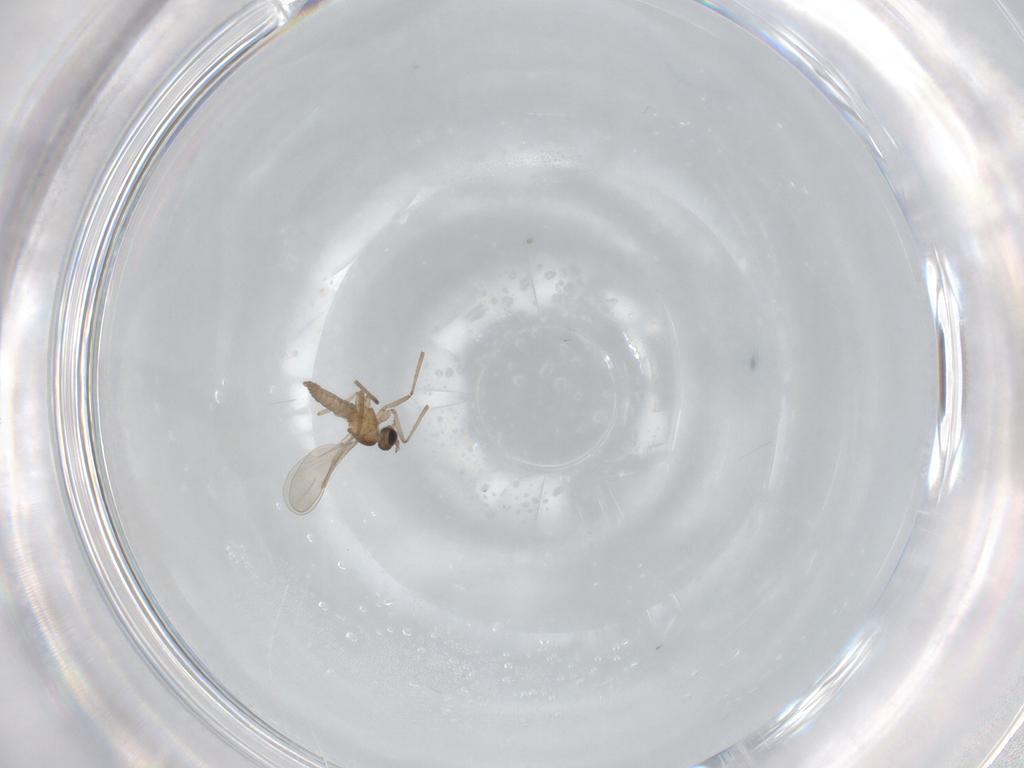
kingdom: Animalia
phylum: Arthropoda
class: Insecta
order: Diptera
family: Cecidomyiidae
